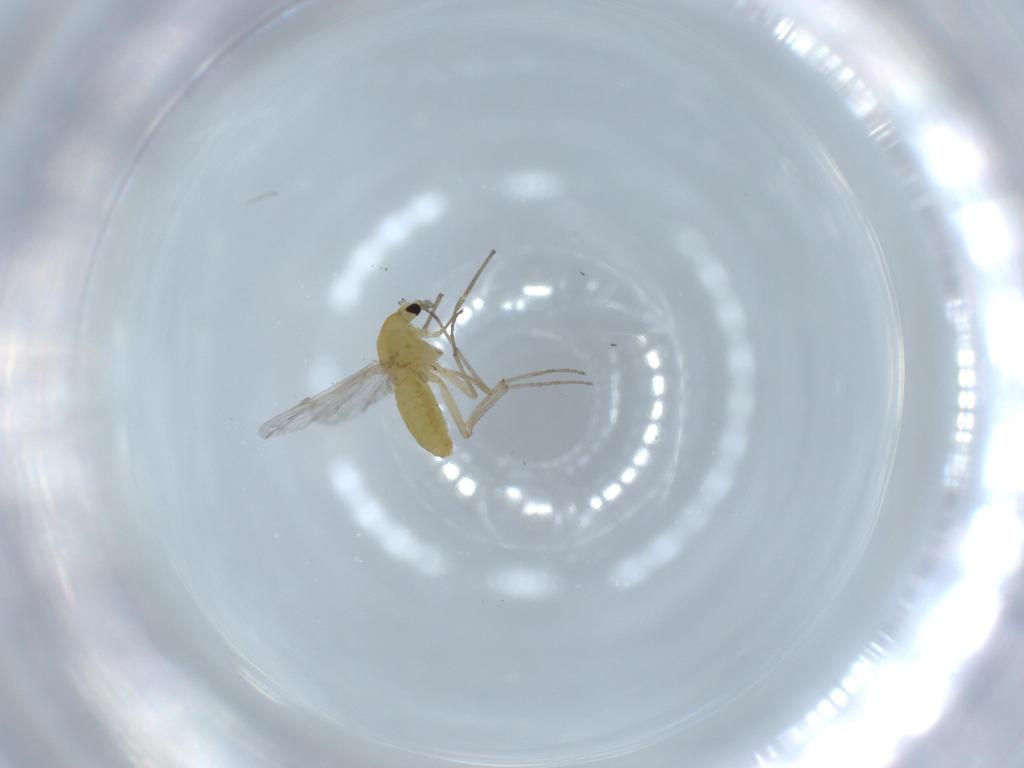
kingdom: Animalia
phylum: Arthropoda
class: Insecta
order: Diptera
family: Chironomidae
